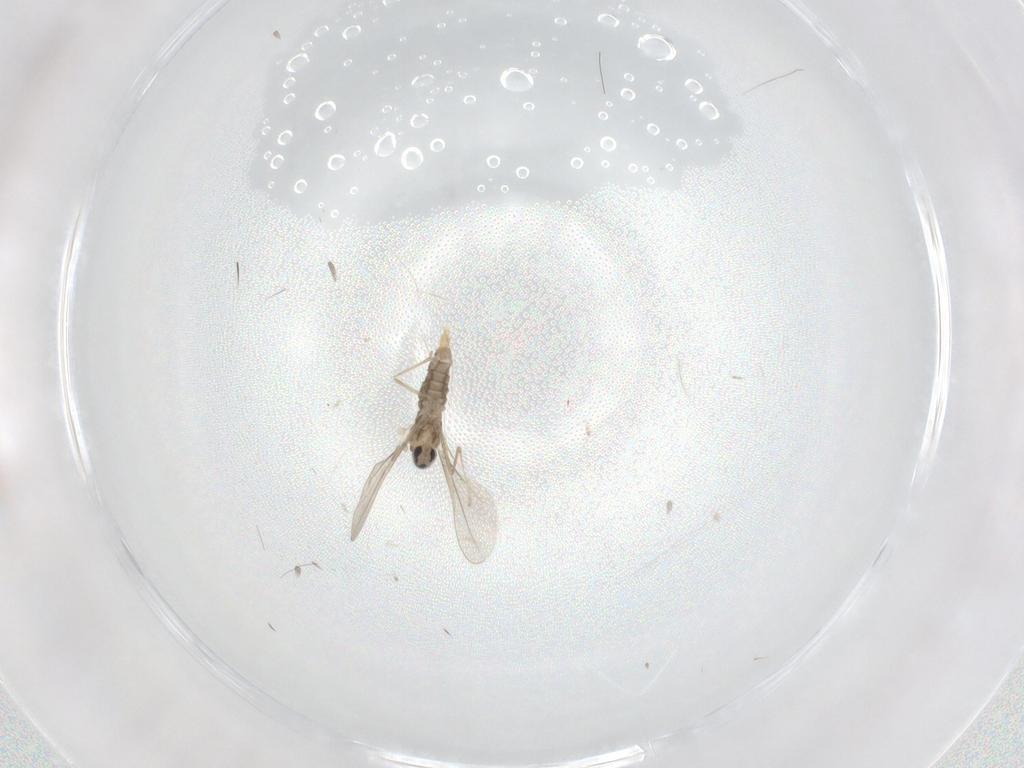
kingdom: Animalia
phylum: Arthropoda
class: Insecta
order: Diptera
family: Cecidomyiidae
